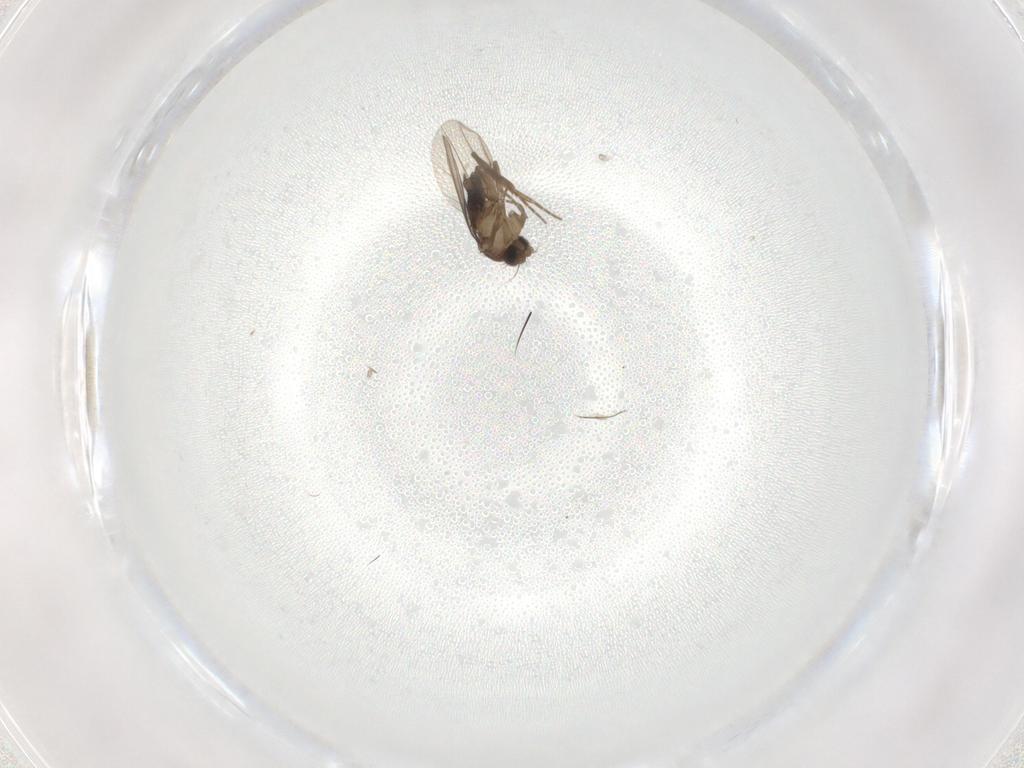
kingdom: Animalia
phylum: Arthropoda
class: Insecta
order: Diptera
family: Phoridae
